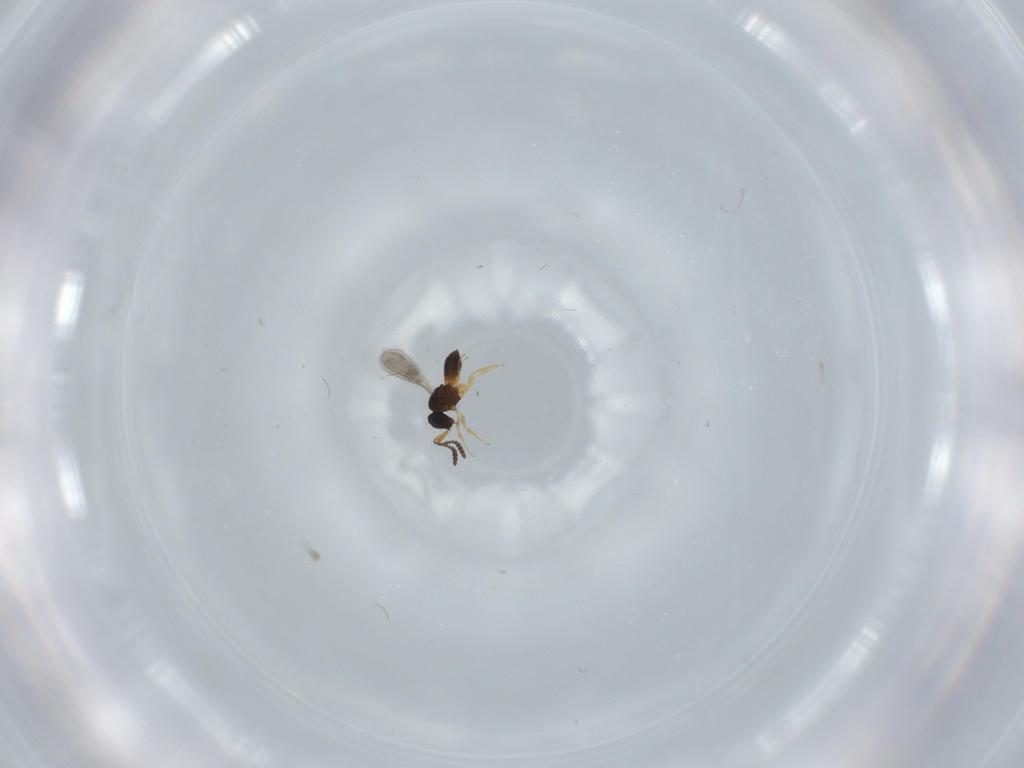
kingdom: Animalia
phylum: Arthropoda
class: Insecta
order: Hymenoptera
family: Scelionidae
